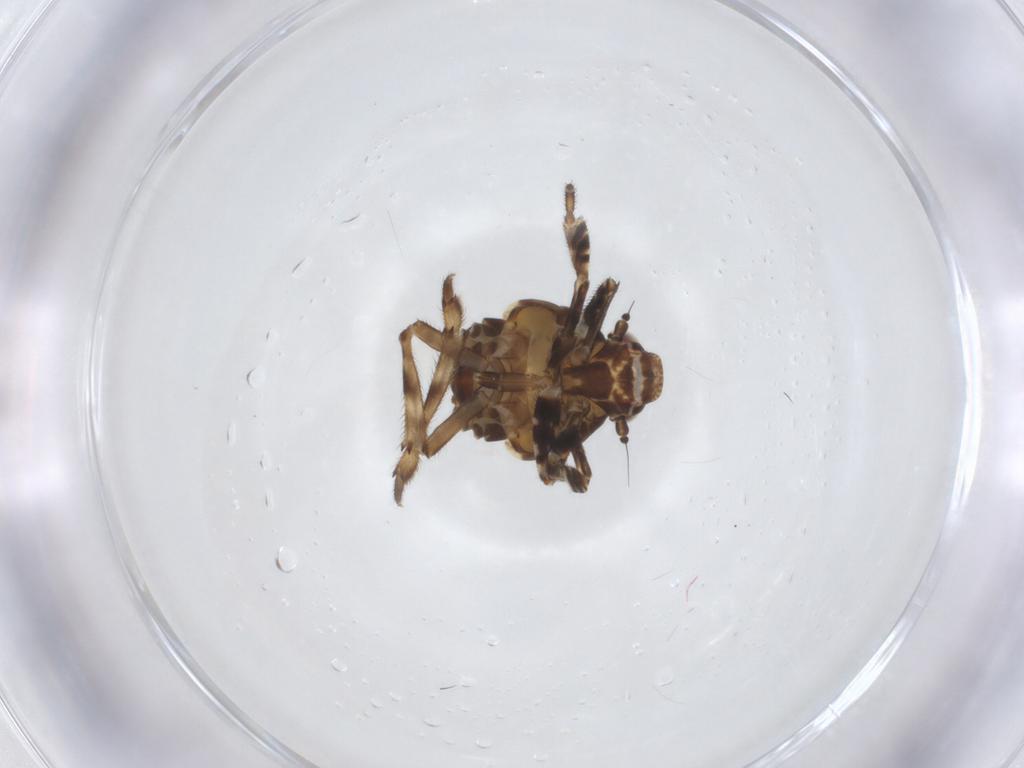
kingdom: Animalia
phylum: Arthropoda
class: Insecta
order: Hemiptera
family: Eurybrachidae
